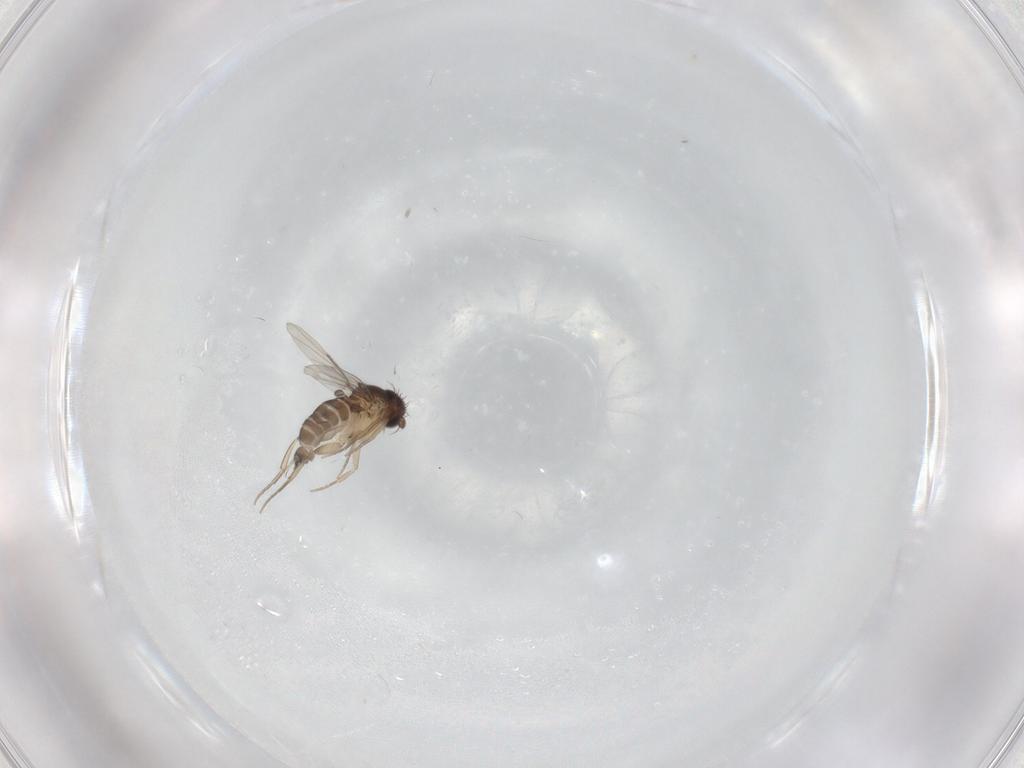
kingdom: Animalia
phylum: Arthropoda
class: Insecta
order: Diptera
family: Phoridae
